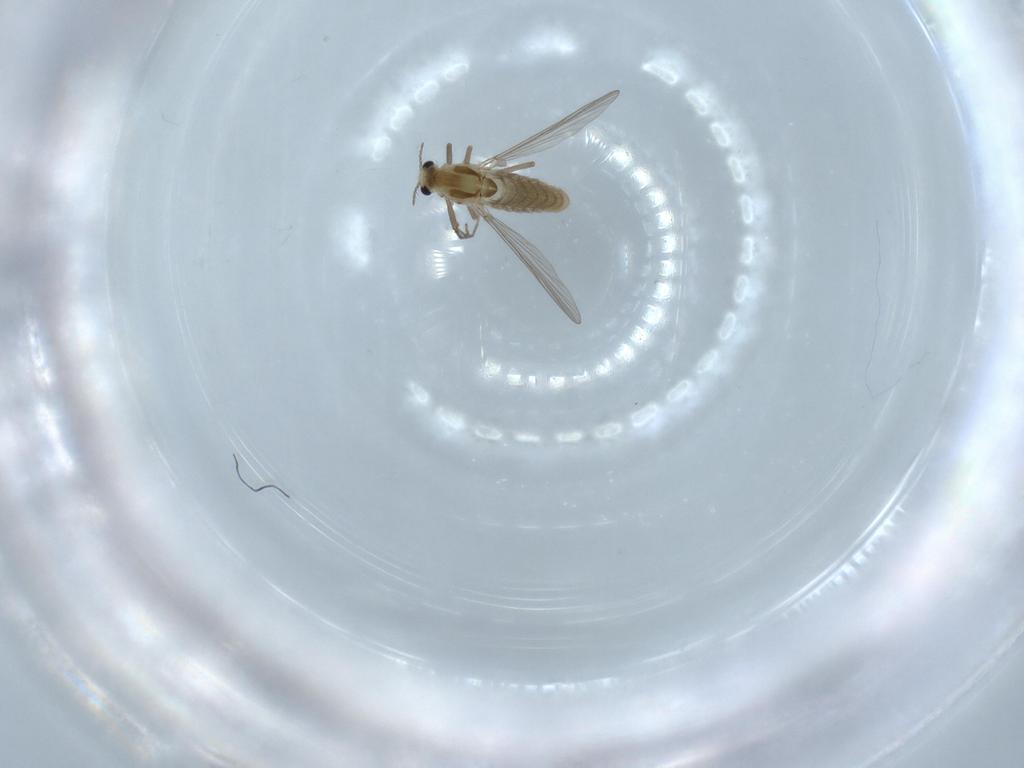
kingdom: Animalia
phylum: Arthropoda
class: Insecta
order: Diptera
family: Chironomidae
